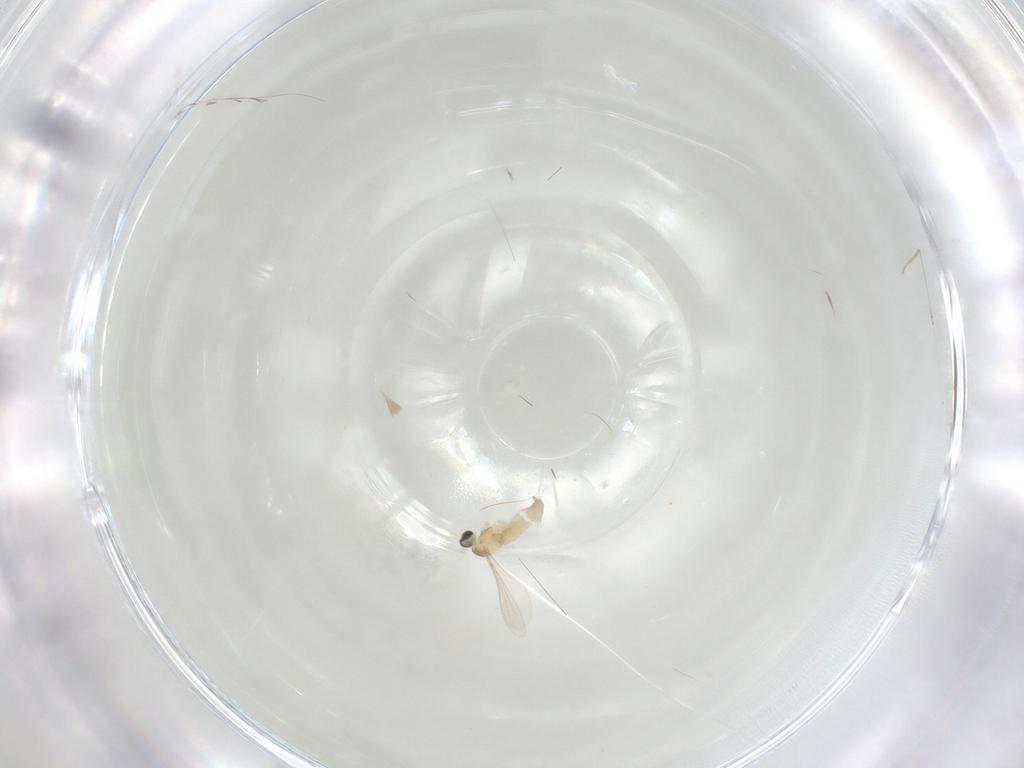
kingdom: Animalia
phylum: Arthropoda
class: Insecta
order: Diptera
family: Cecidomyiidae
